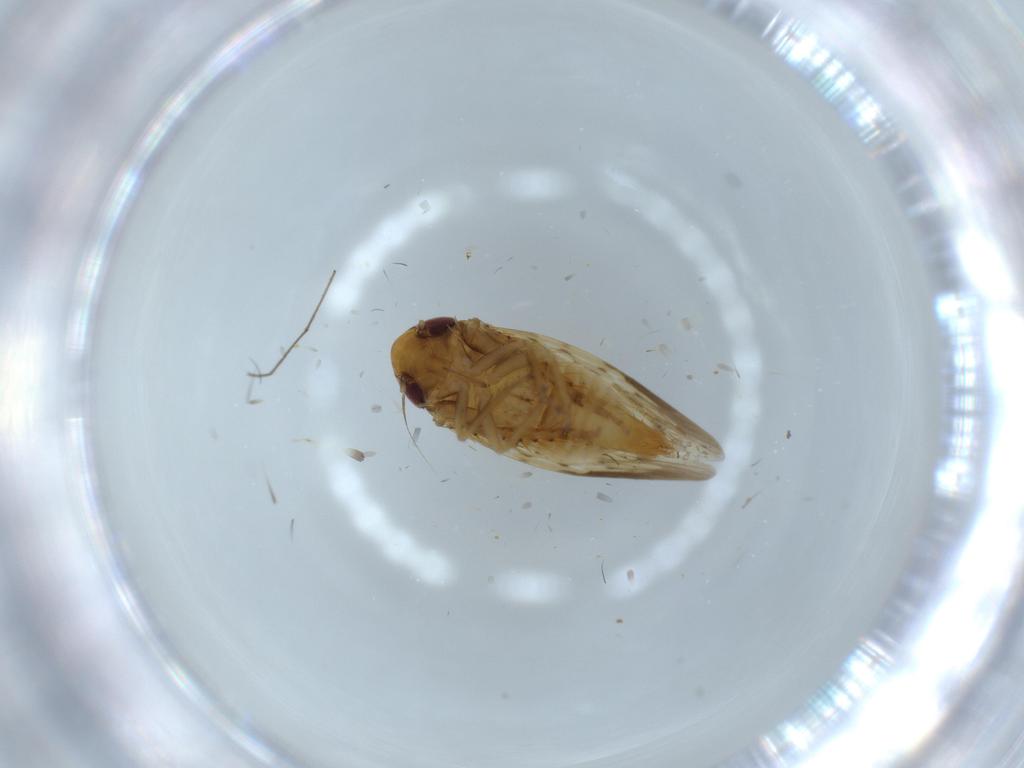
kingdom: Animalia
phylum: Arthropoda
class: Insecta
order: Hemiptera
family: Cicadellidae
